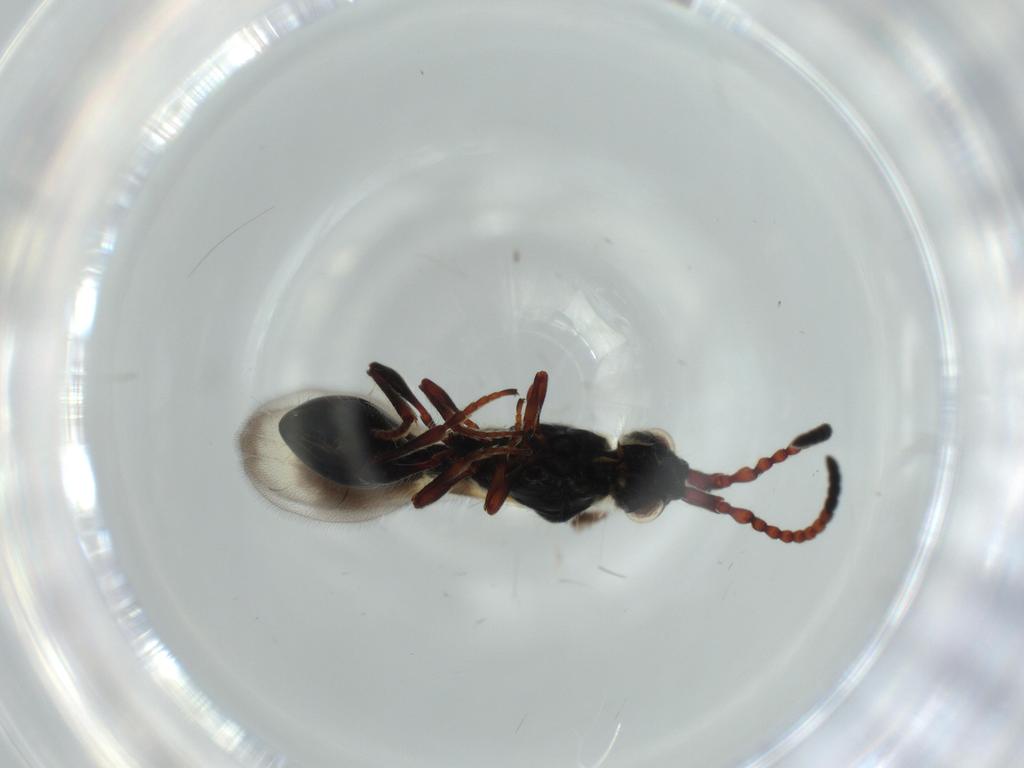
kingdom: Animalia
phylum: Arthropoda
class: Insecta
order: Hymenoptera
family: Diapriidae
